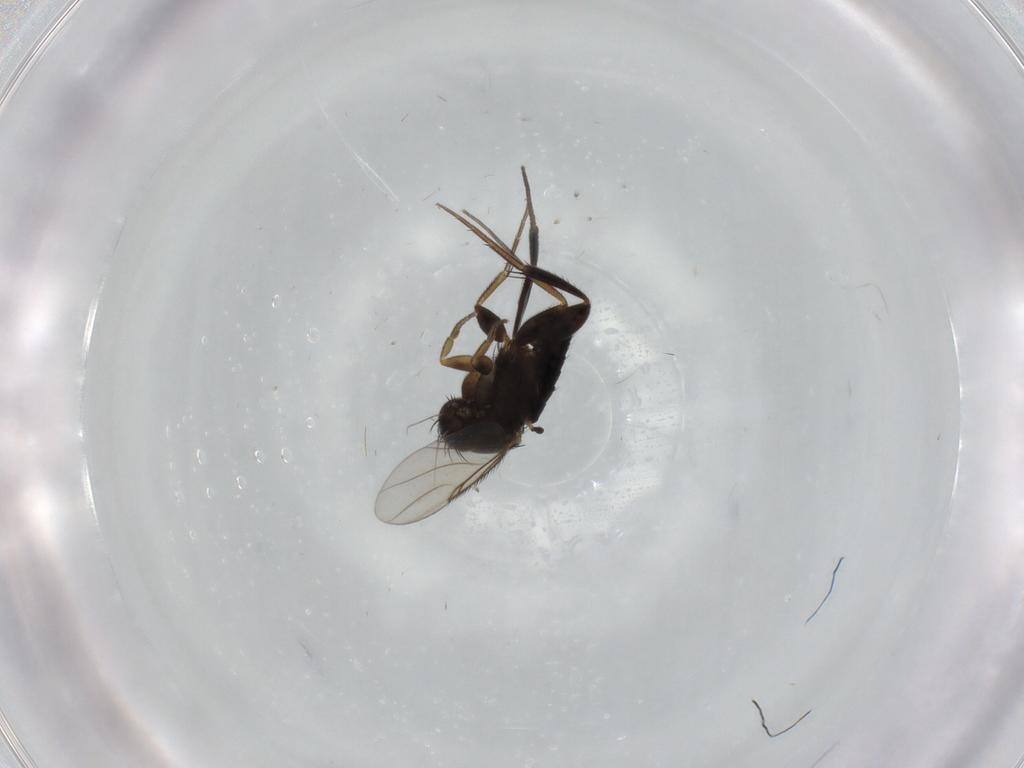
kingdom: Animalia
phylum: Arthropoda
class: Insecta
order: Diptera
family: Phoridae
